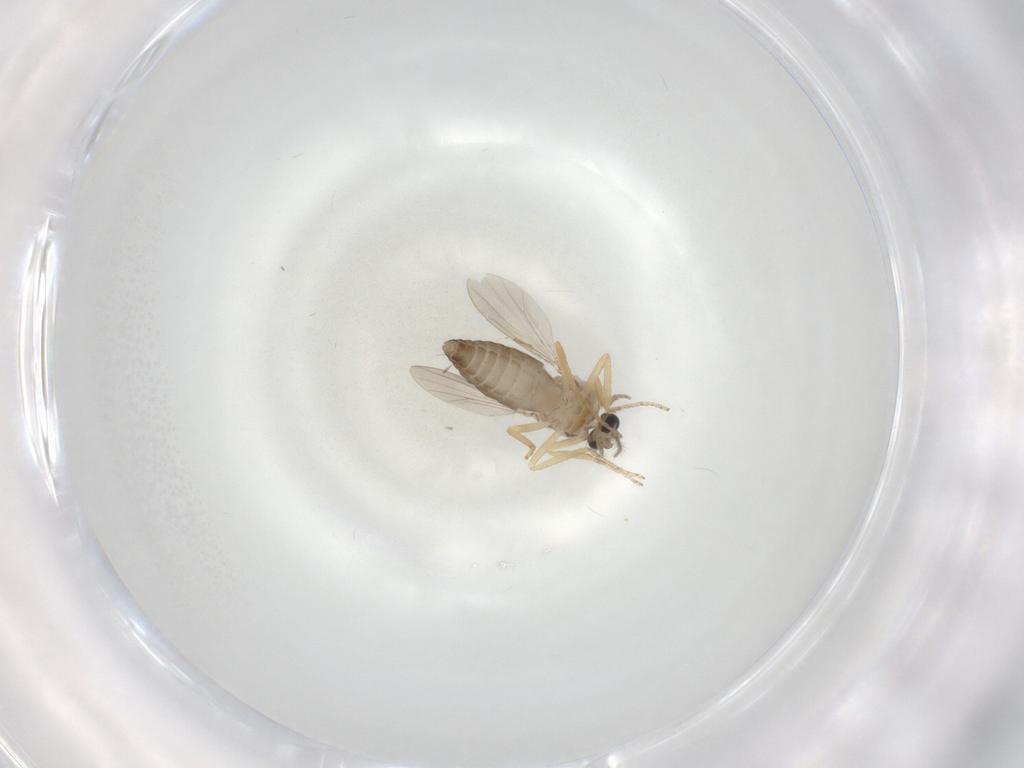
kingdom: Animalia
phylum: Arthropoda
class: Insecta
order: Diptera
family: Ceratopogonidae
